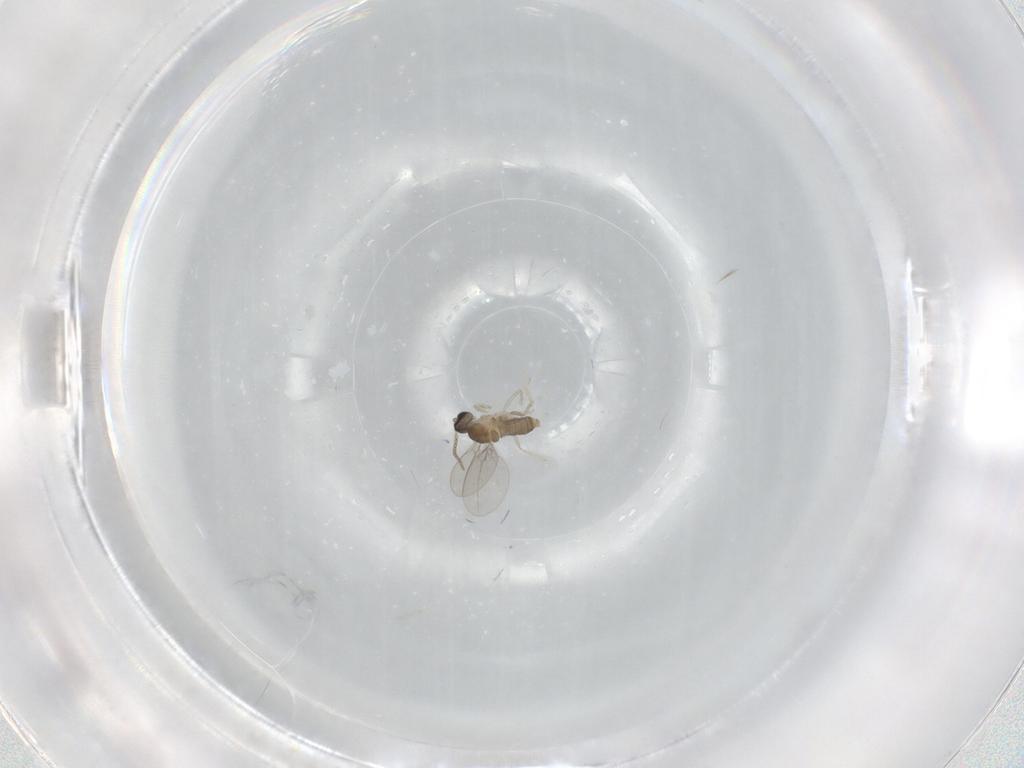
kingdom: Animalia
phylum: Arthropoda
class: Insecta
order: Diptera
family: Cecidomyiidae
